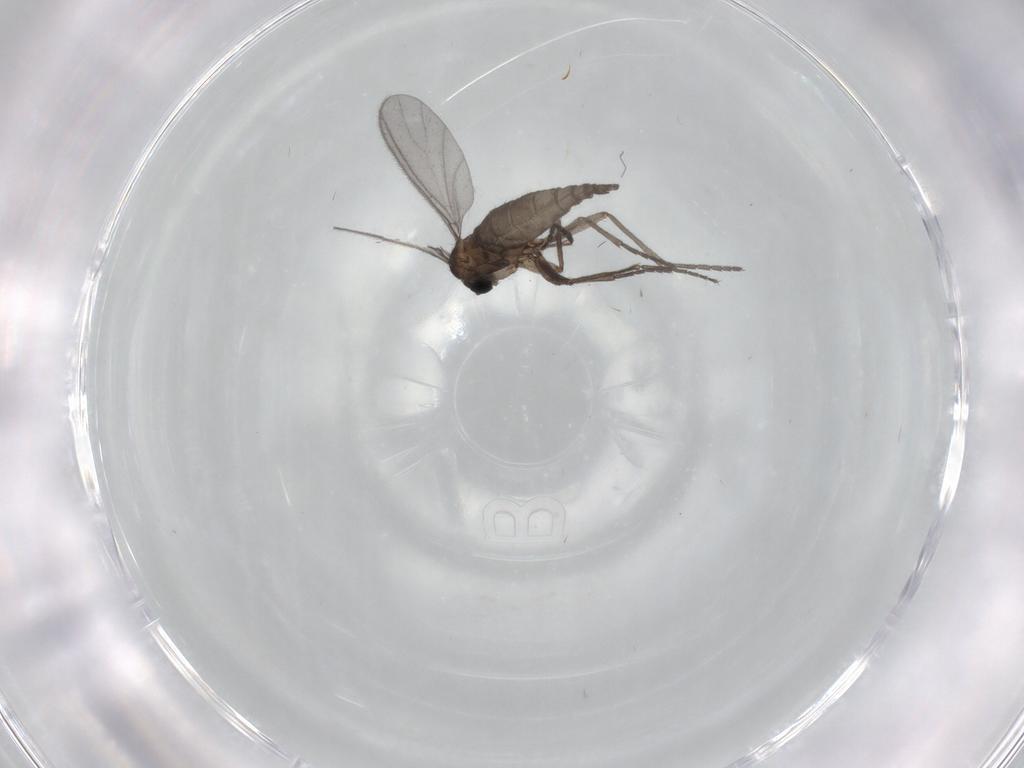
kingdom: Animalia
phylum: Arthropoda
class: Insecta
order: Diptera
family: Sciaridae
